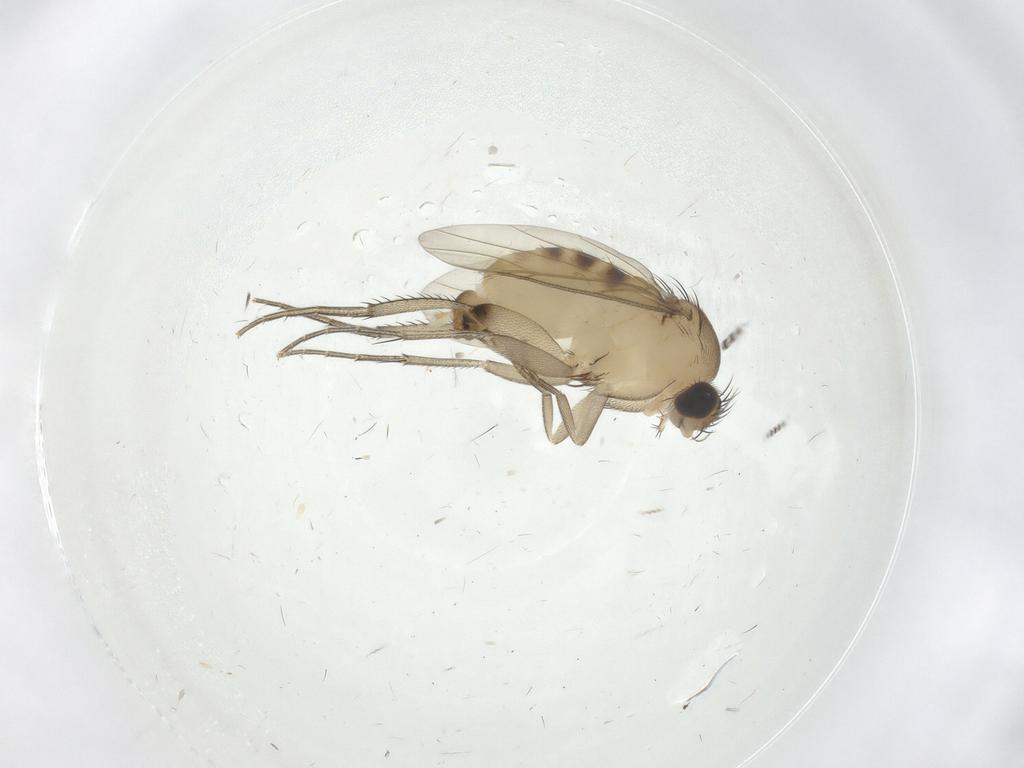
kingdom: Animalia
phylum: Arthropoda
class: Insecta
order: Diptera
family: Phoridae
